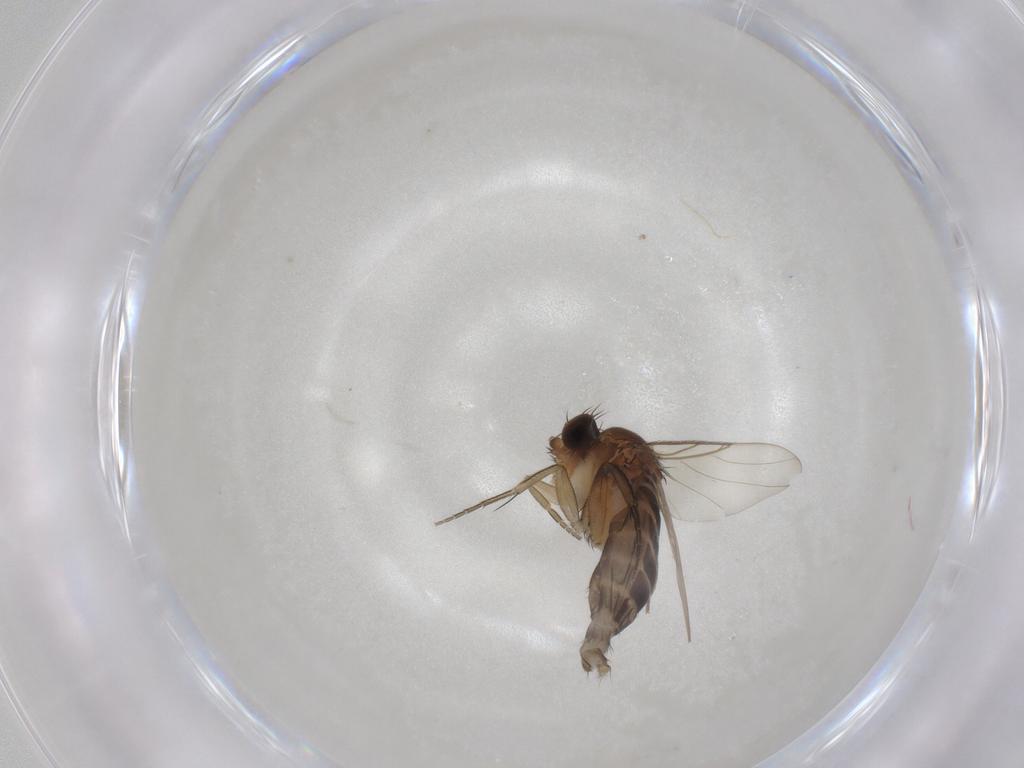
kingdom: Animalia
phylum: Arthropoda
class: Insecta
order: Diptera
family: Phoridae
